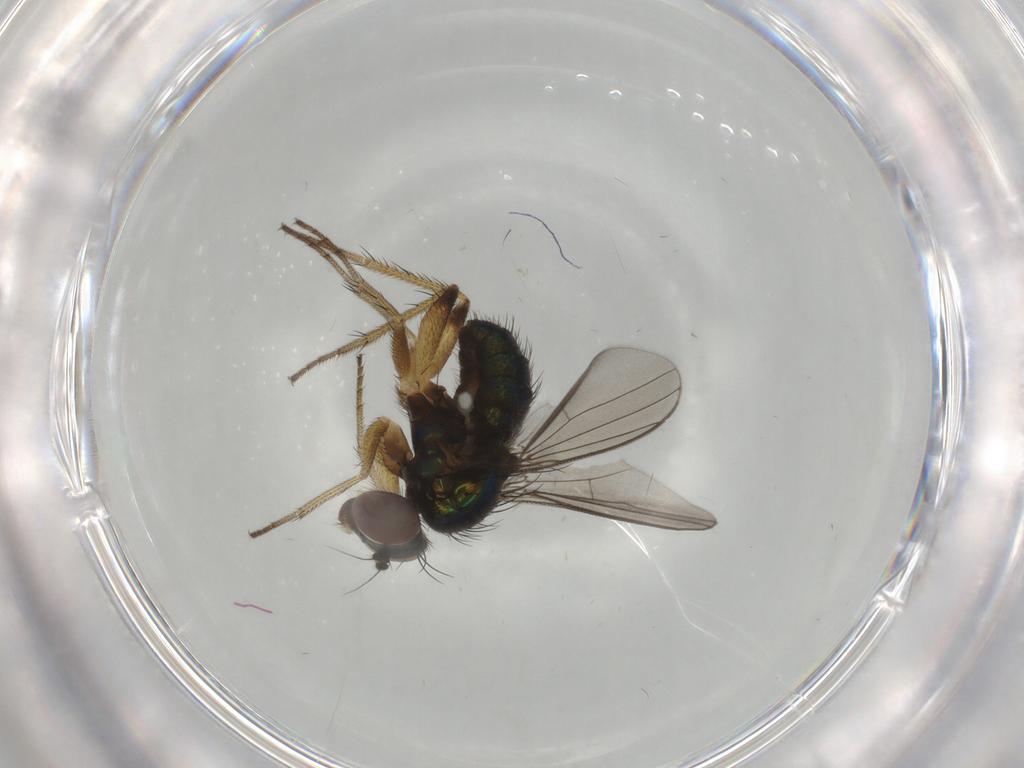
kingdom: Animalia
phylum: Arthropoda
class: Insecta
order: Diptera
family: Dolichopodidae
